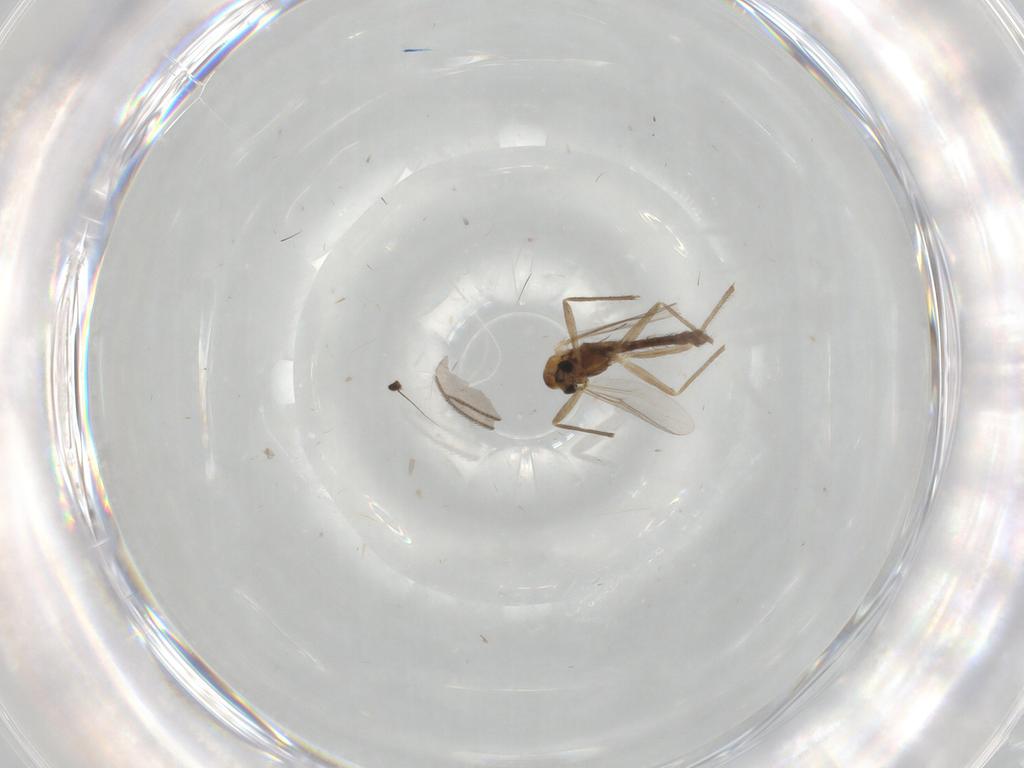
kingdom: Animalia
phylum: Arthropoda
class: Insecta
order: Diptera
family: Chironomidae
